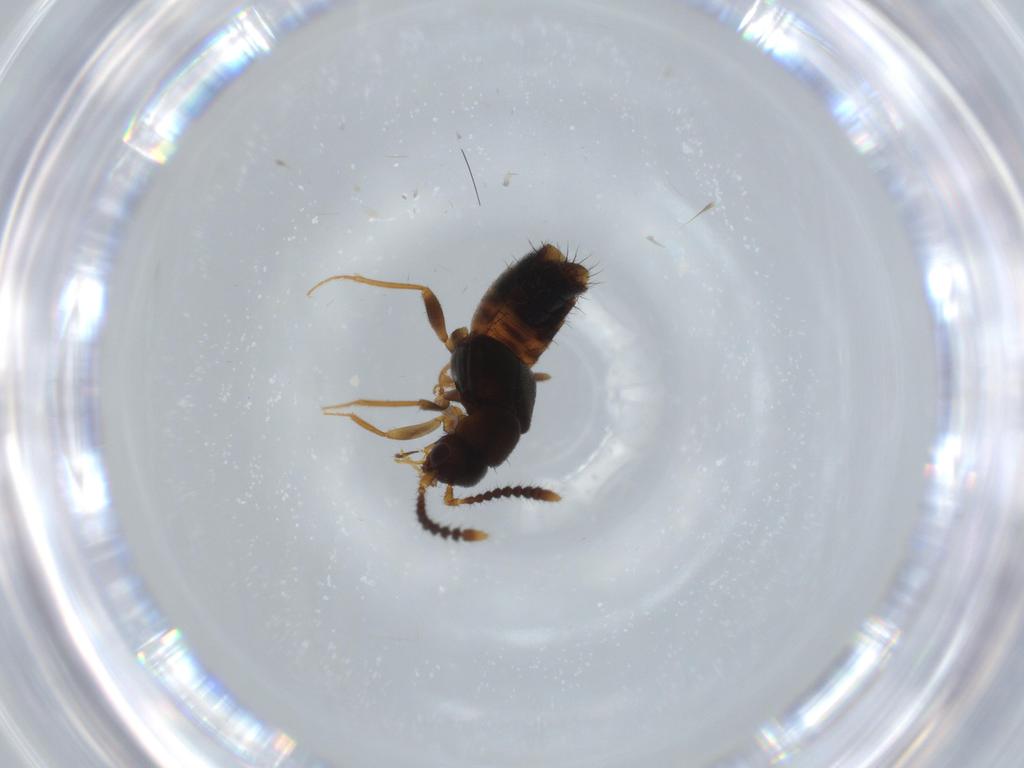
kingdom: Animalia
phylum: Arthropoda
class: Insecta
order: Coleoptera
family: Staphylinidae
